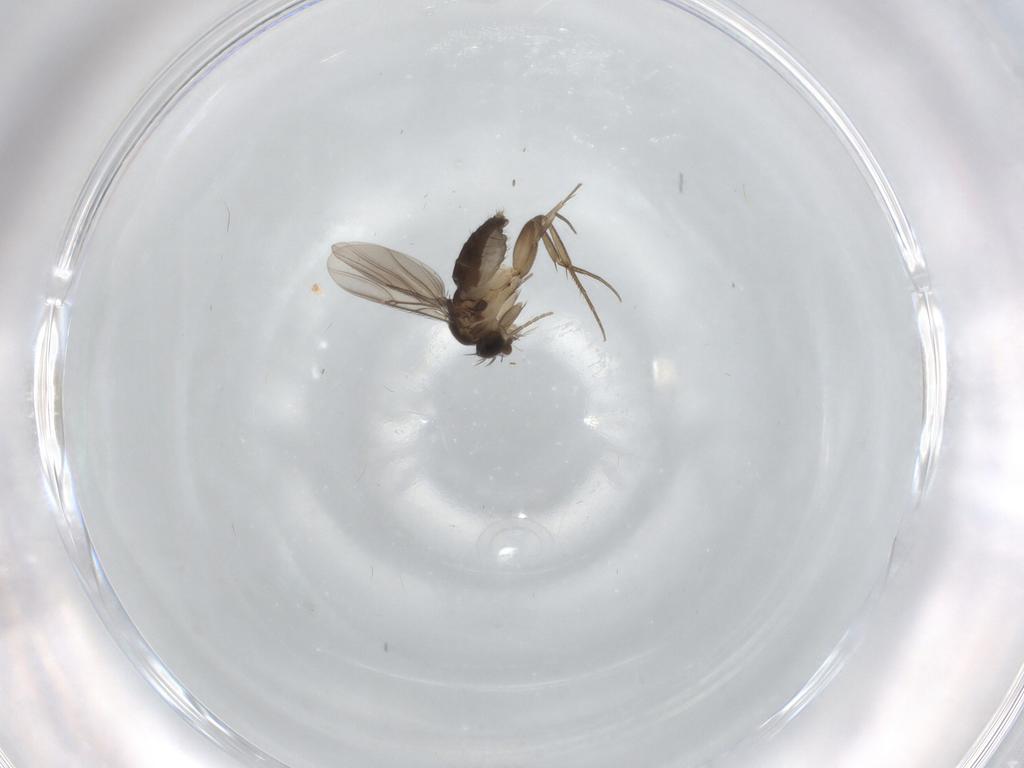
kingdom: Animalia
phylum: Arthropoda
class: Insecta
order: Diptera
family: Phoridae
